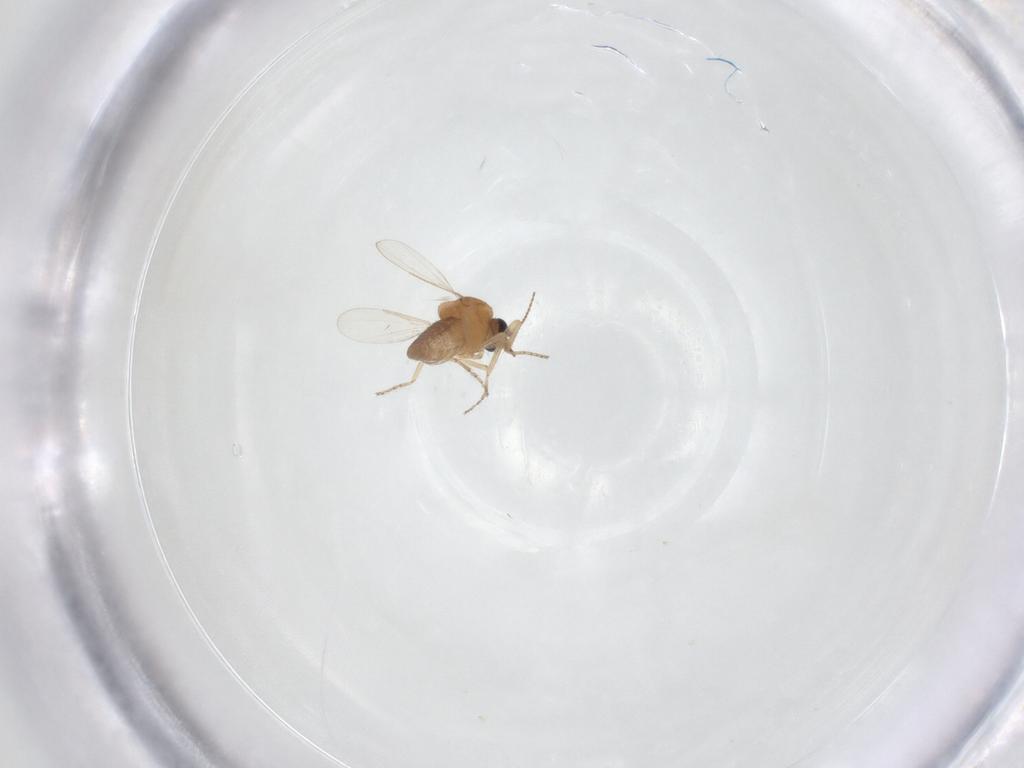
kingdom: Animalia
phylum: Arthropoda
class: Insecta
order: Diptera
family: Ceratopogonidae
